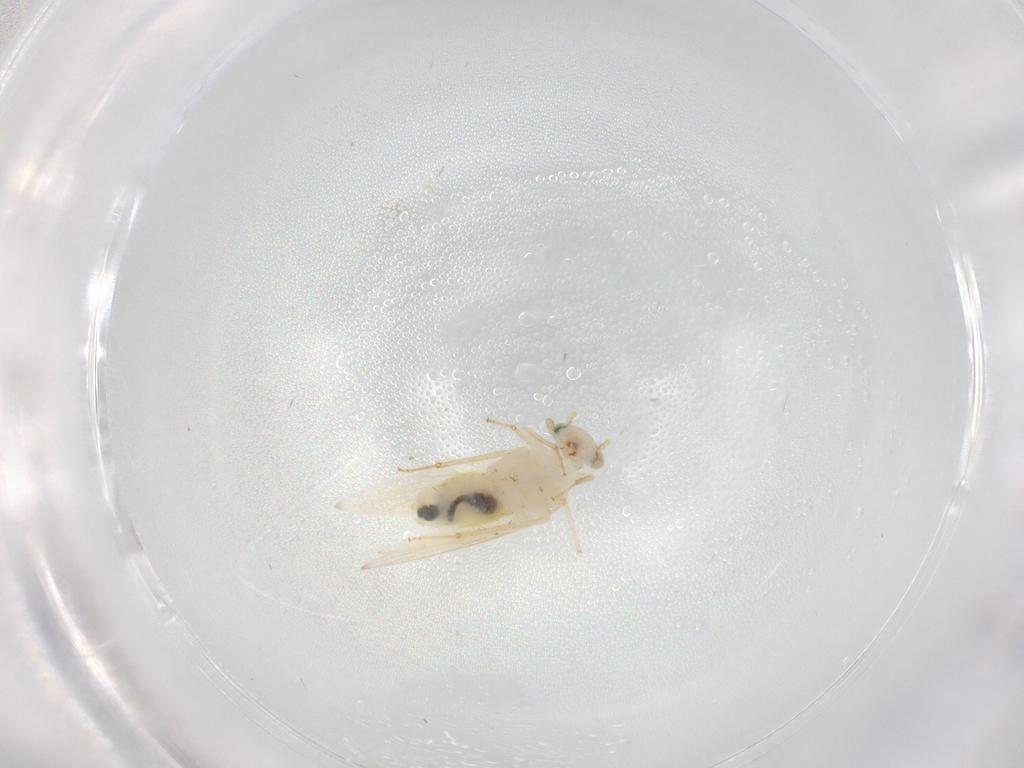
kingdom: Animalia
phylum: Arthropoda
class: Insecta
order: Psocodea
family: Lepidopsocidae
